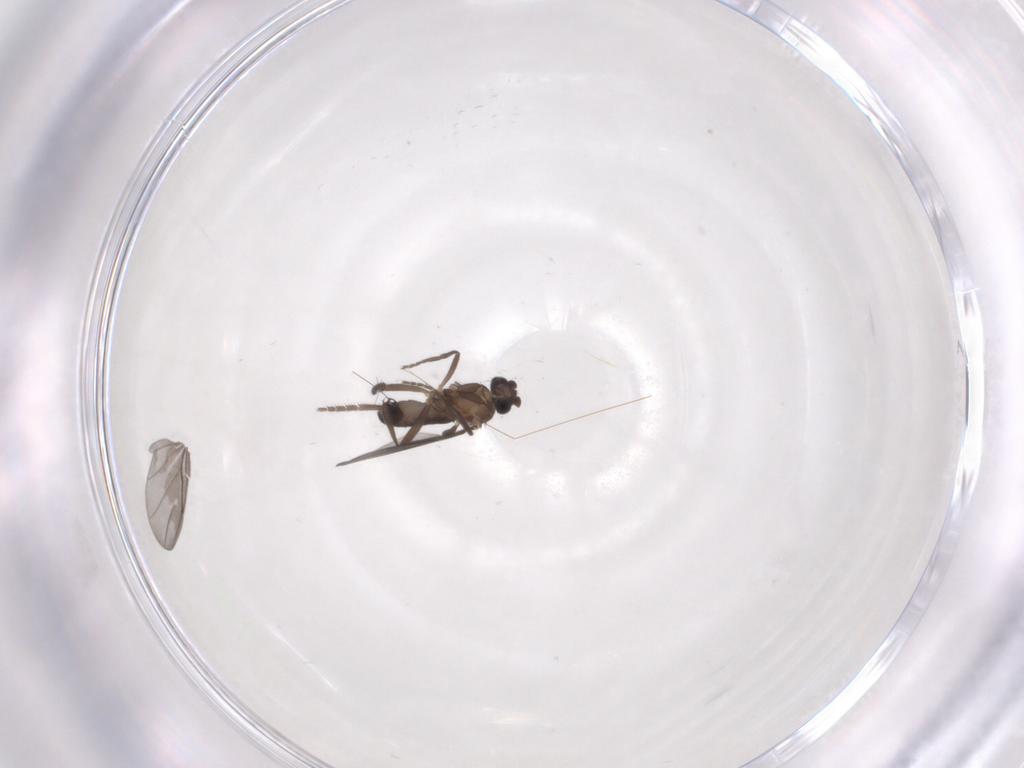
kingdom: Animalia
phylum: Arthropoda
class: Insecta
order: Diptera
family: Phoridae
